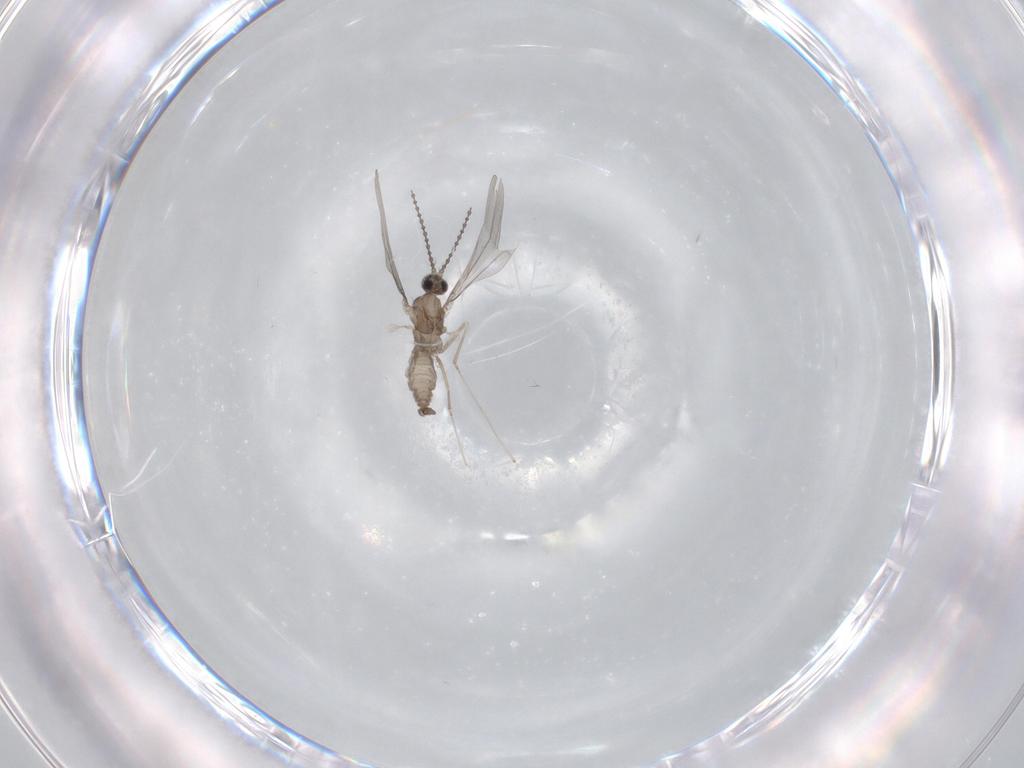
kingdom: Animalia
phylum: Arthropoda
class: Insecta
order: Diptera
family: Cecidomyiidae
